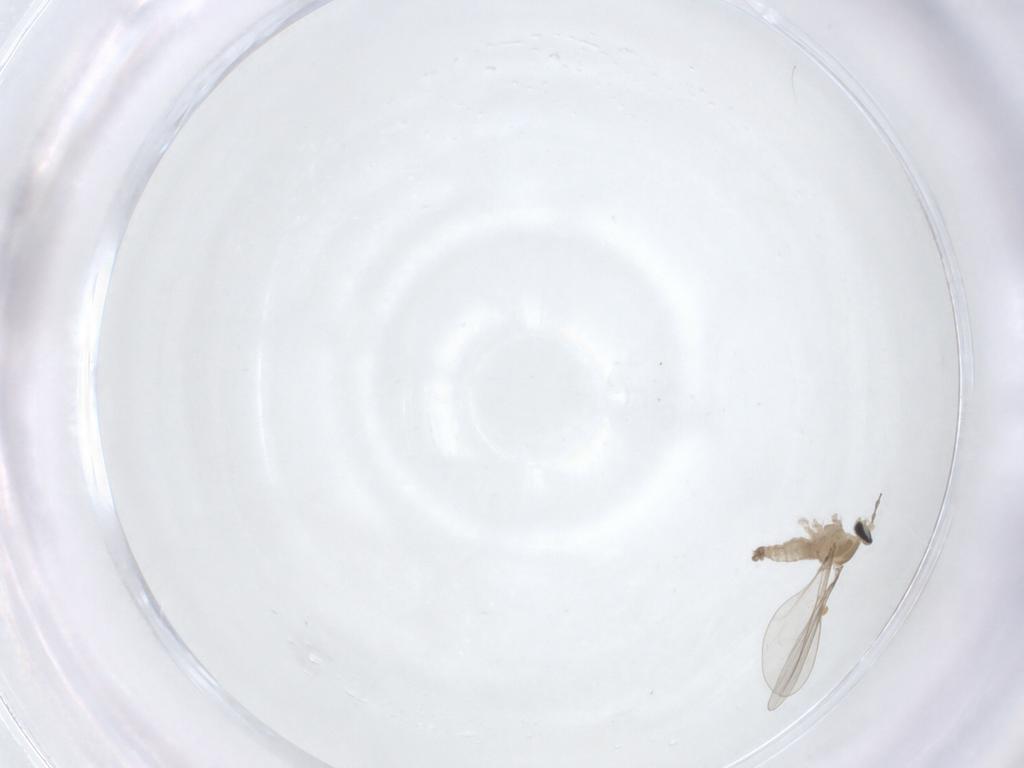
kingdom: Animalia
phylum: Arthropoda
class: Insecta
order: Diptera
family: Cecidomyiidae
